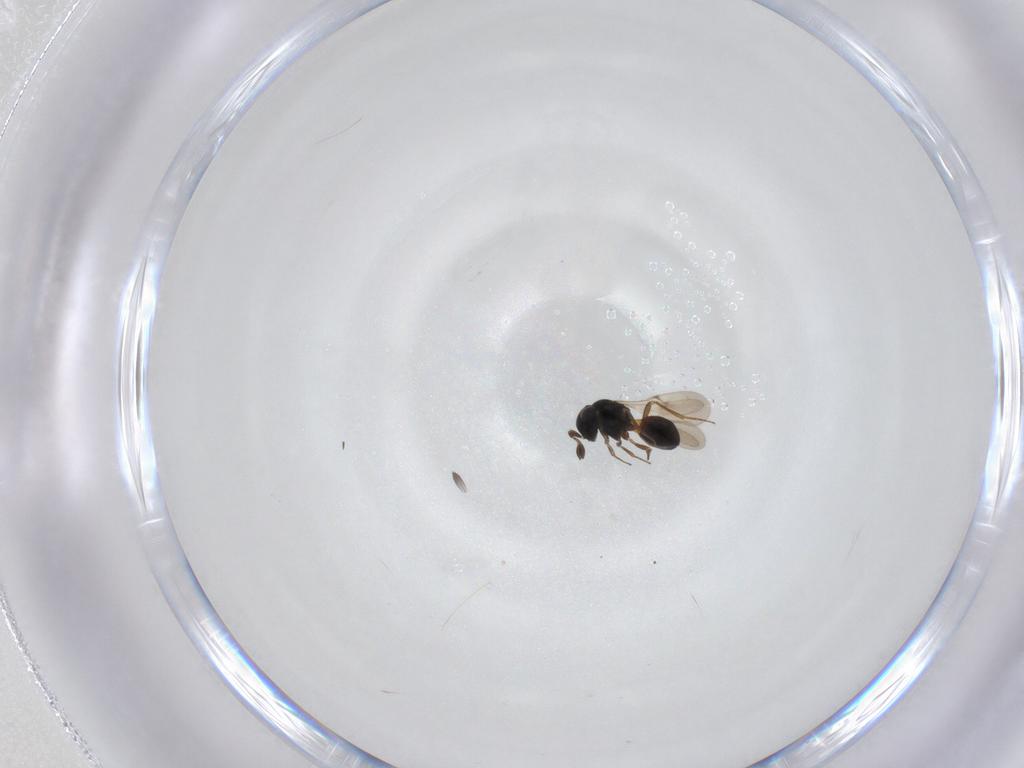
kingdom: Animalia
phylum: Arthropoda
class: Insecta
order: Hymenoptera
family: Scelionidae
